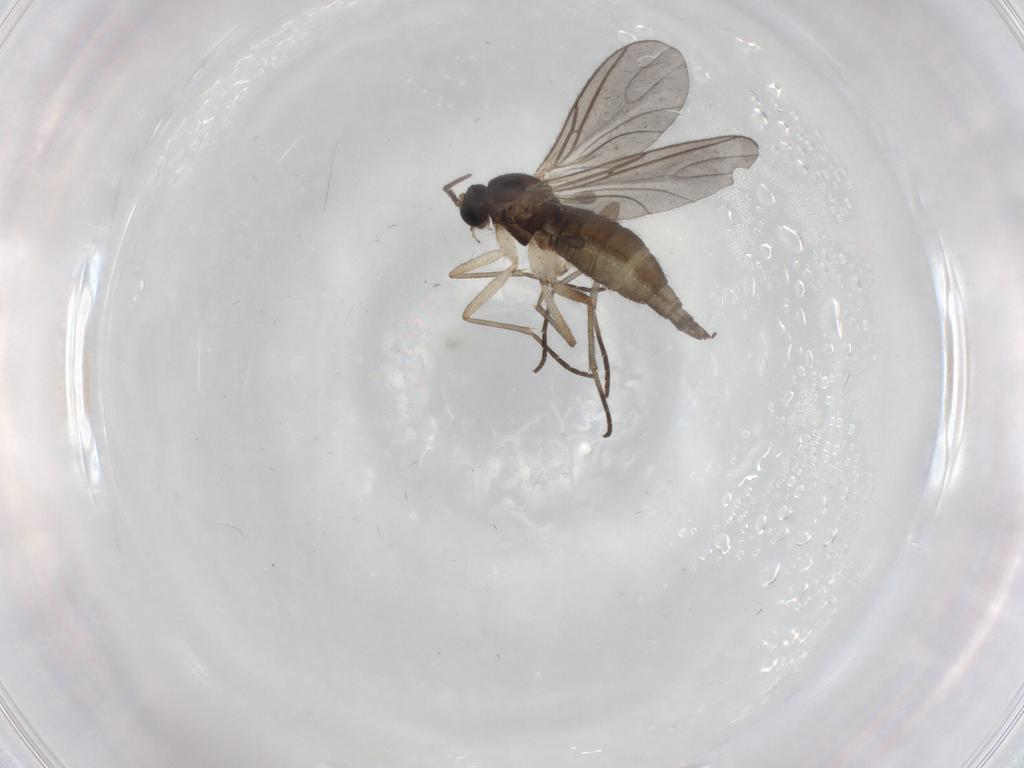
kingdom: Animalia
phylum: Arthropoda
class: Insecta
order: Diptera
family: Sciaridae
